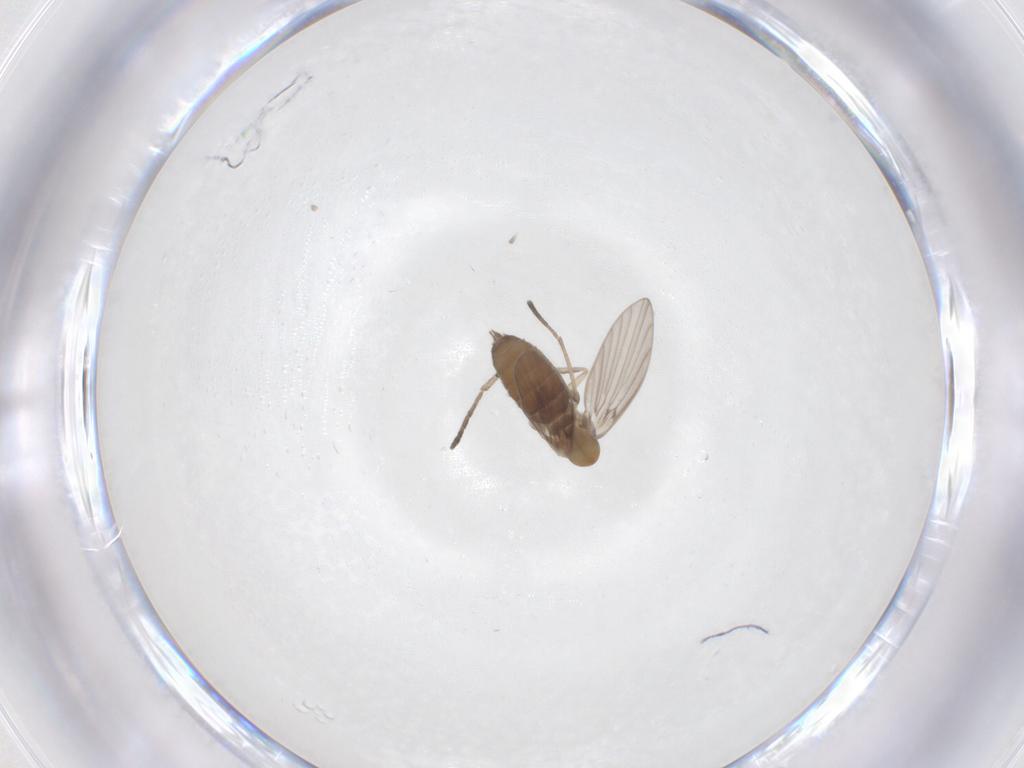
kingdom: Animalia
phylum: Arthropoda
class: Insecta
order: Diptera
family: Psychodidae
